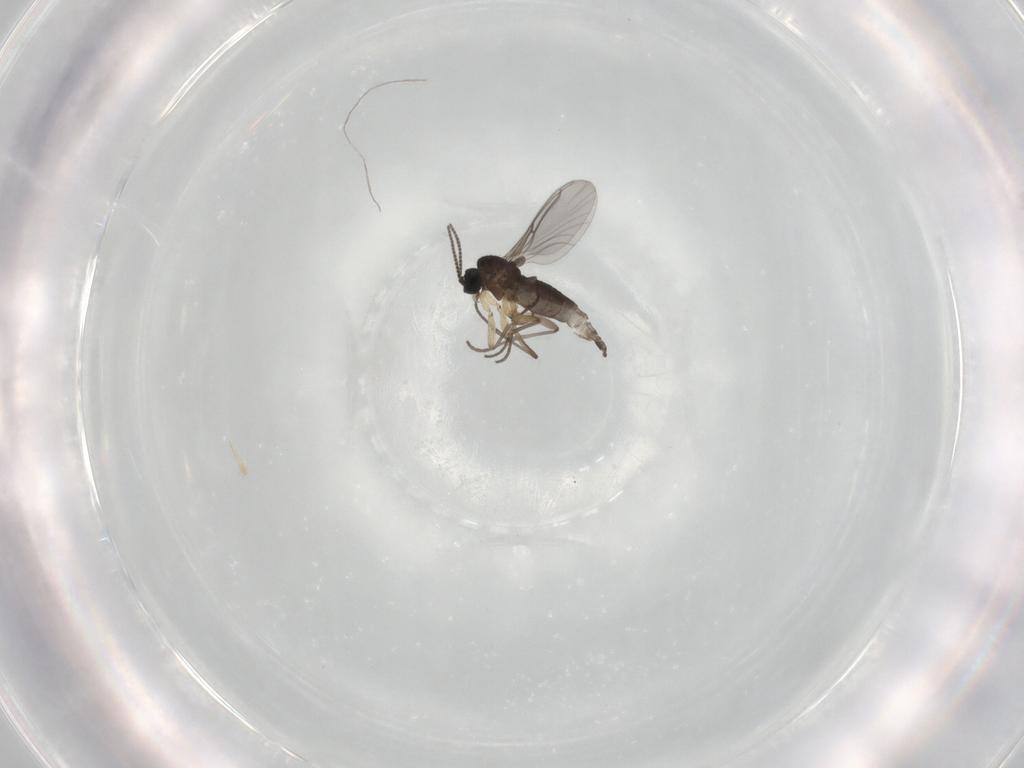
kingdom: Animalia
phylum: Arthropoda
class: Insecta
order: Diptera
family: Sciaridae
